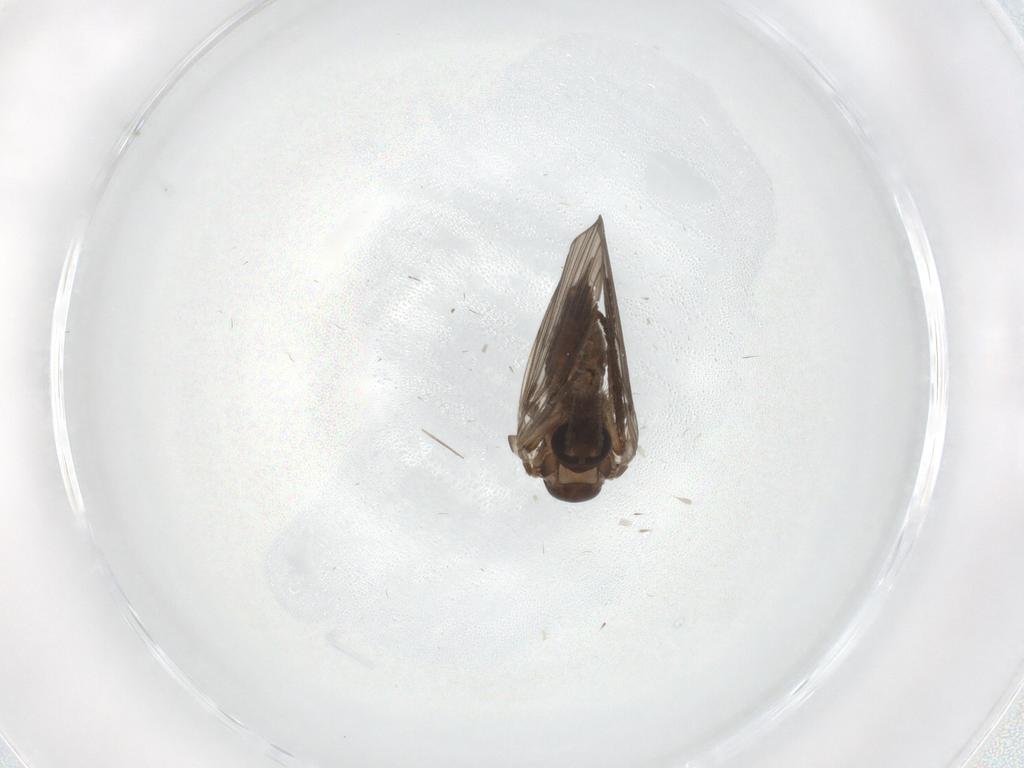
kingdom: Animalia
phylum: Arthropoda
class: Insecta
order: Diptera
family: Psychodidae
